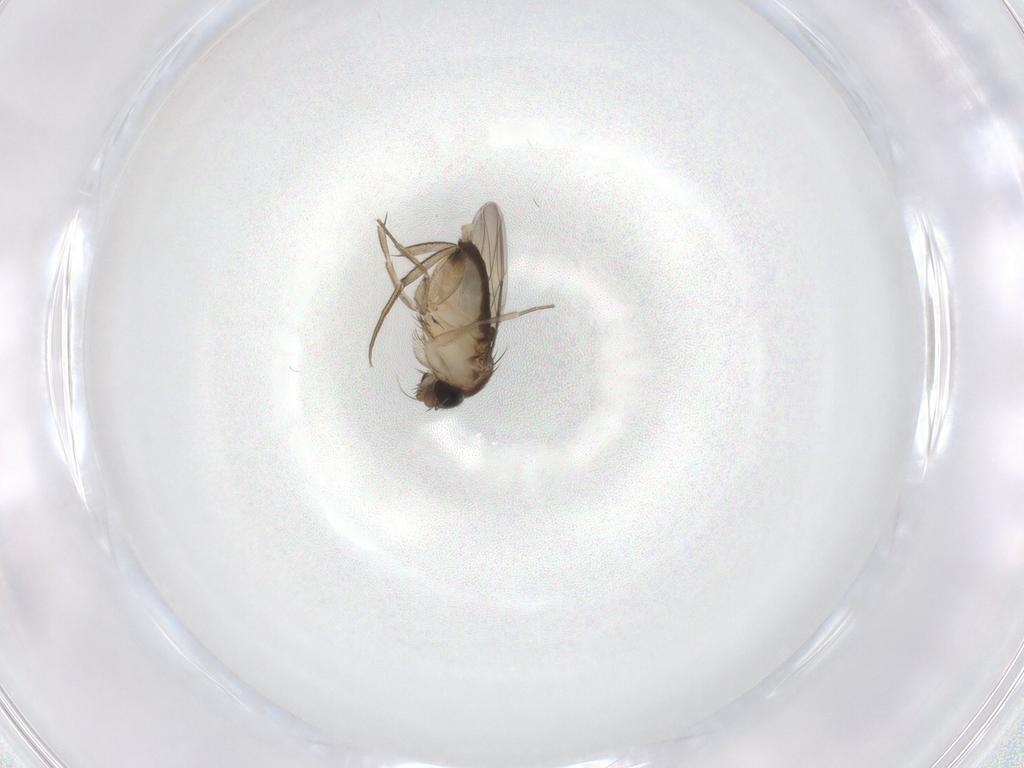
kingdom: Animalia
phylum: Arthropoda
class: Insecta
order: Diptera
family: Phoridae
